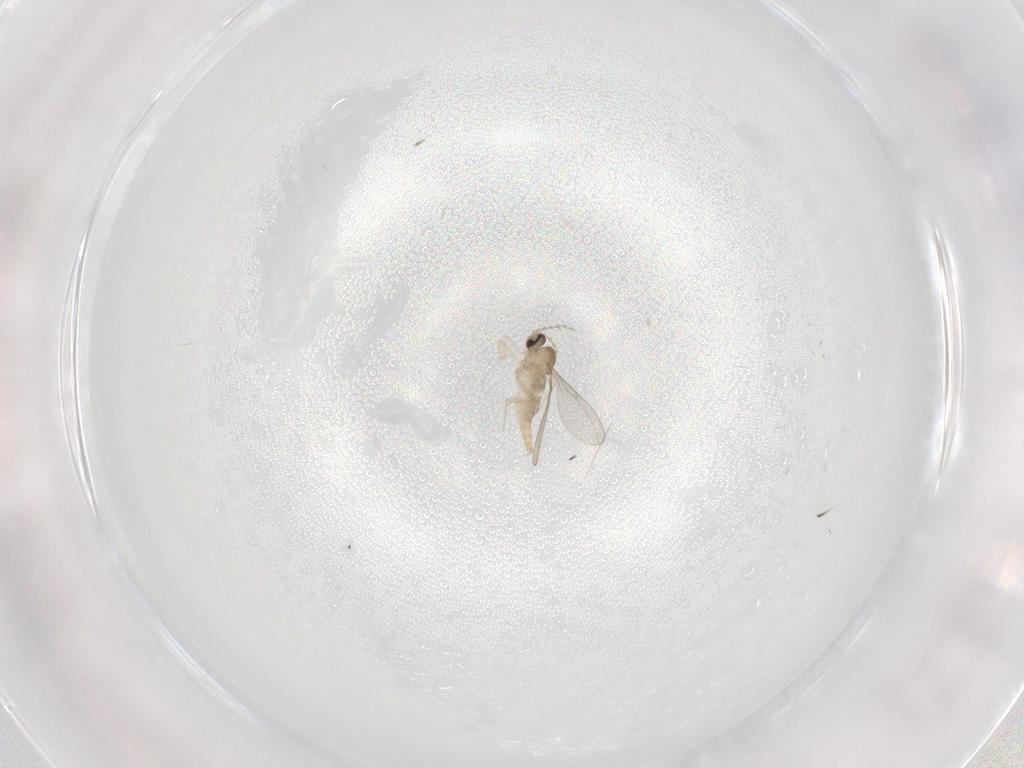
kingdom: Animalia
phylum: Arthropoda
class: Insecta
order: Diptera
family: Cecidomyiidae
